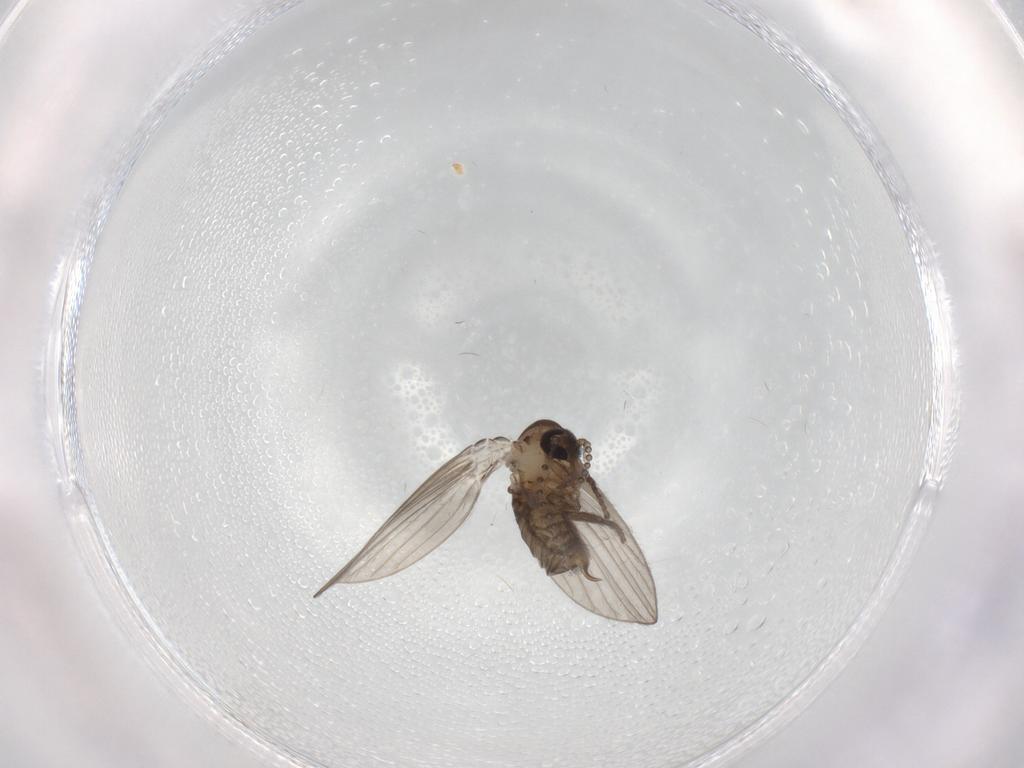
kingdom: Animalia
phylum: Arthropoda
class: Insecta
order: Diptera
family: Psychodidae
